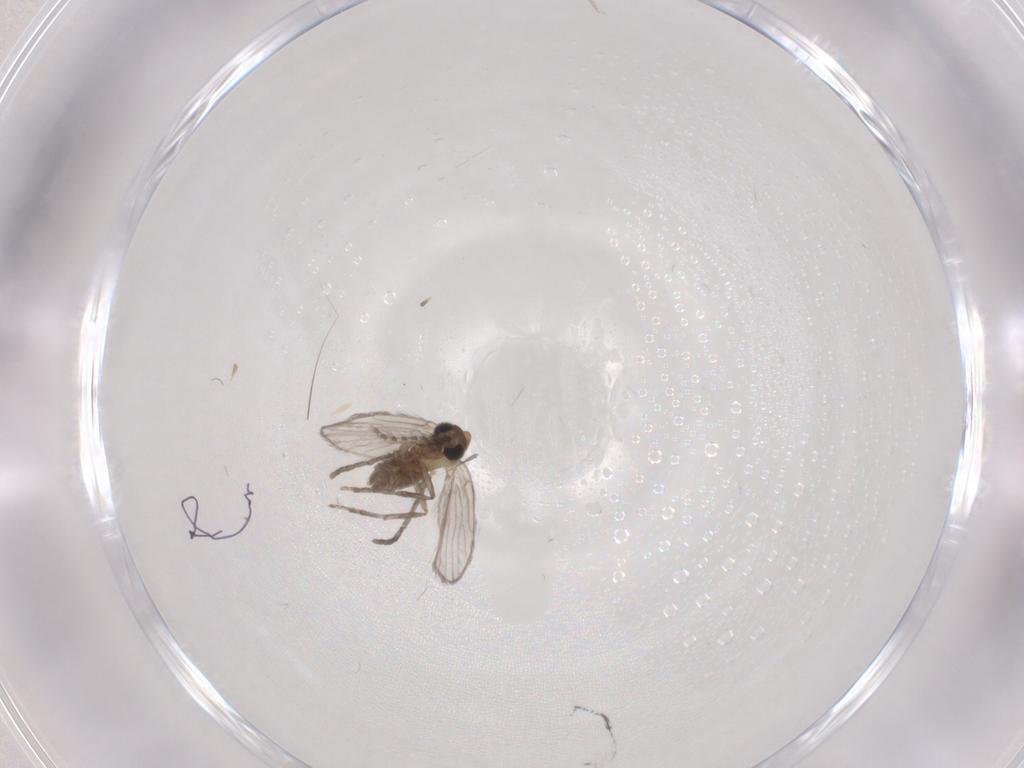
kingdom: Animalia
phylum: Arthropoda
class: Insecta
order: Diptera
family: Psychodidae
